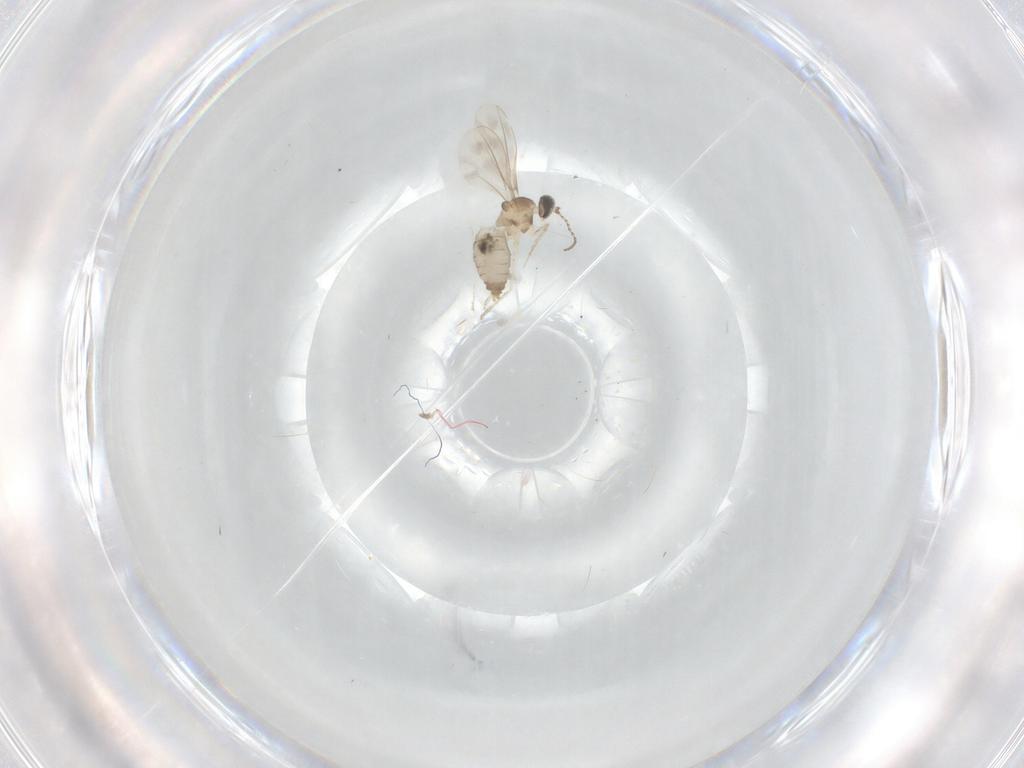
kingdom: Animalia
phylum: Arthropoda
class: Insecta
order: Diptera
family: Cecidomyiidae
